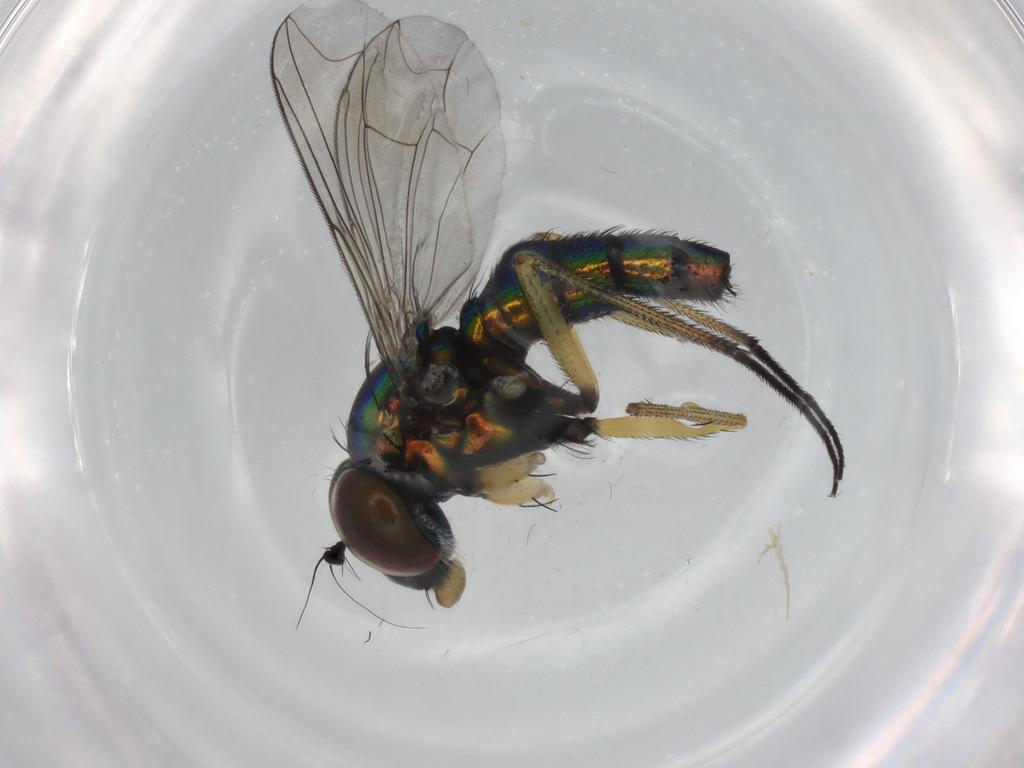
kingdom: Animalia
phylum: Arthropoda
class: Insecta
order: Diptera
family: Dolichopodidae
